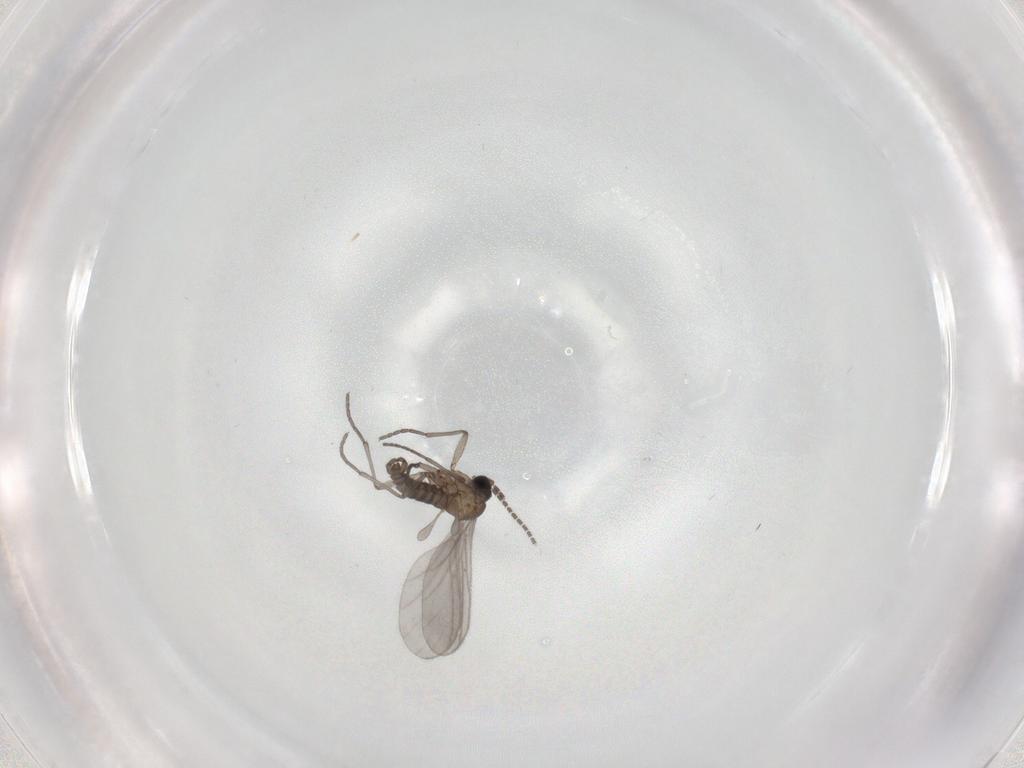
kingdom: Animalia
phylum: Arthropoda
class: Insecta
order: Diptera
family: Sciaridae
